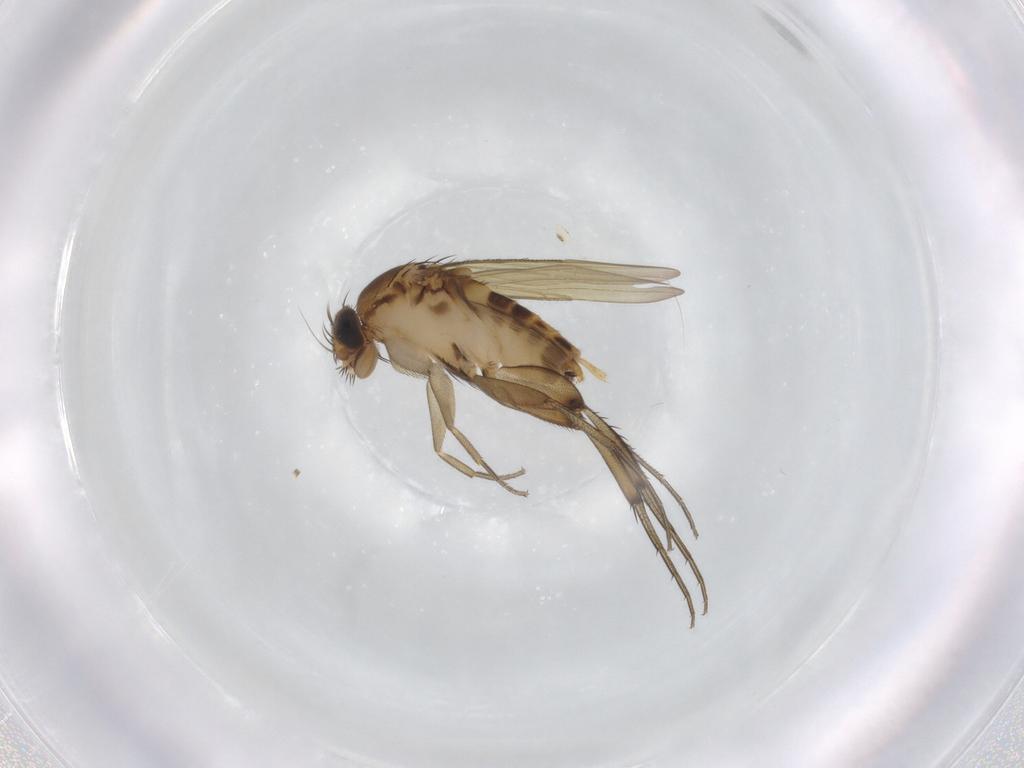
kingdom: Animalia
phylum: Arthropoda
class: Insecta
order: Diptera
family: Phoridae
